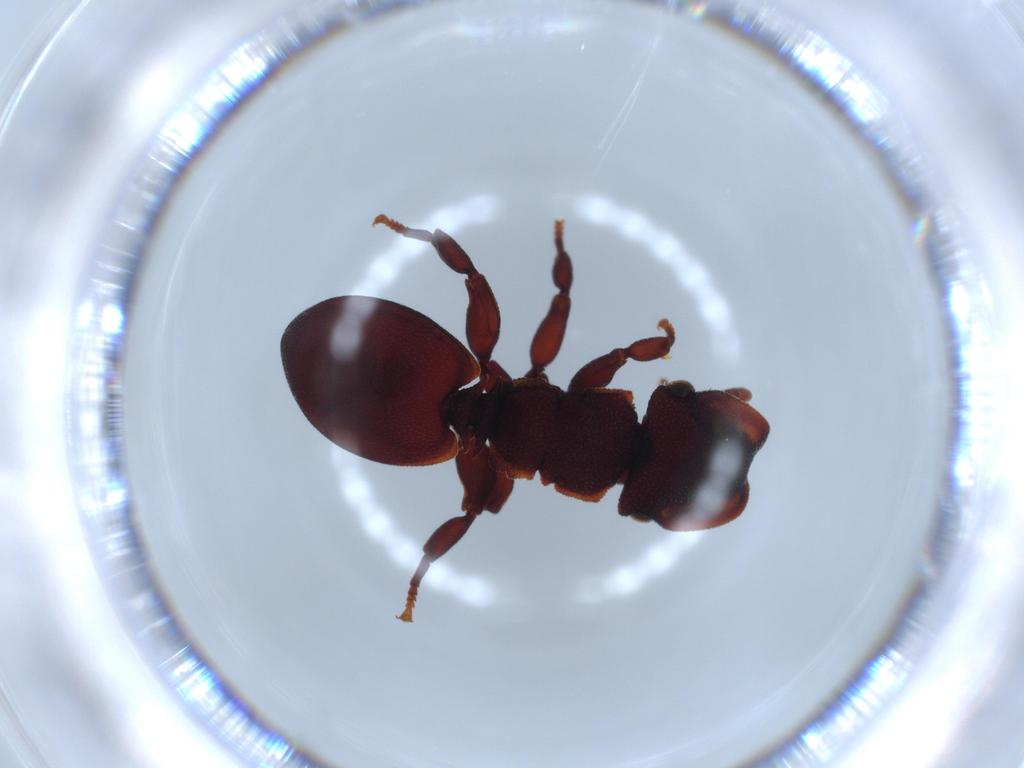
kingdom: Animalia
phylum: Arthropoda
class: Insecta
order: Hymenoptera
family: Formicidae
